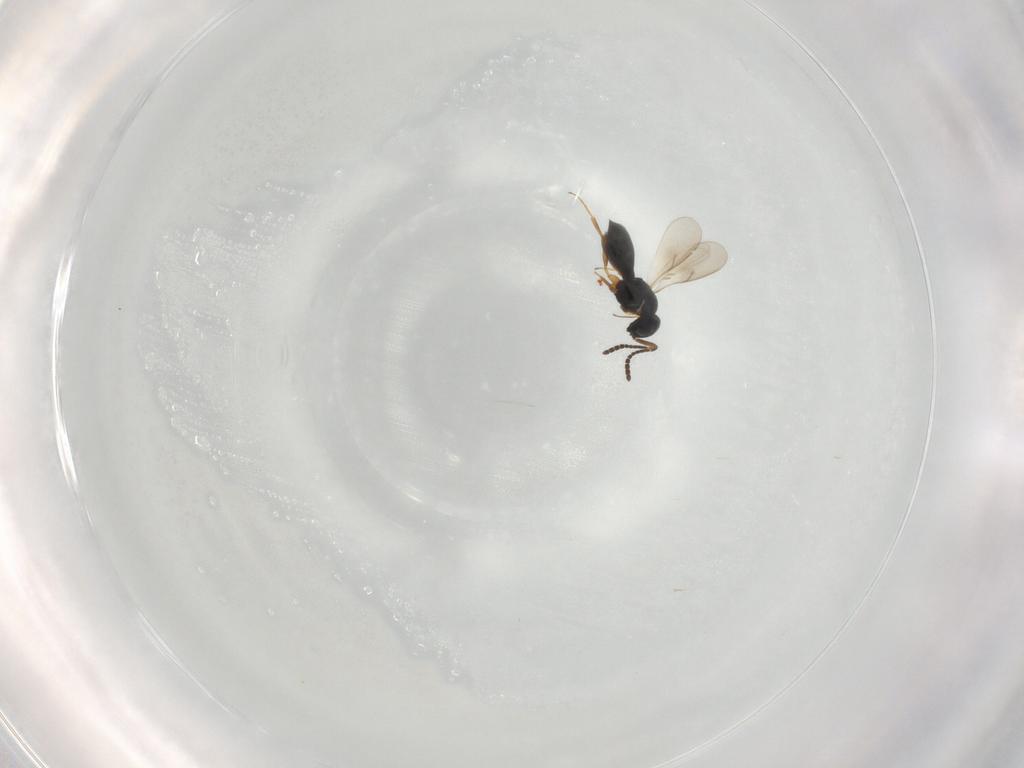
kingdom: Animalia
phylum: Arthropoda
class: Insecta
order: Hymenoptera
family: Scelionidae
